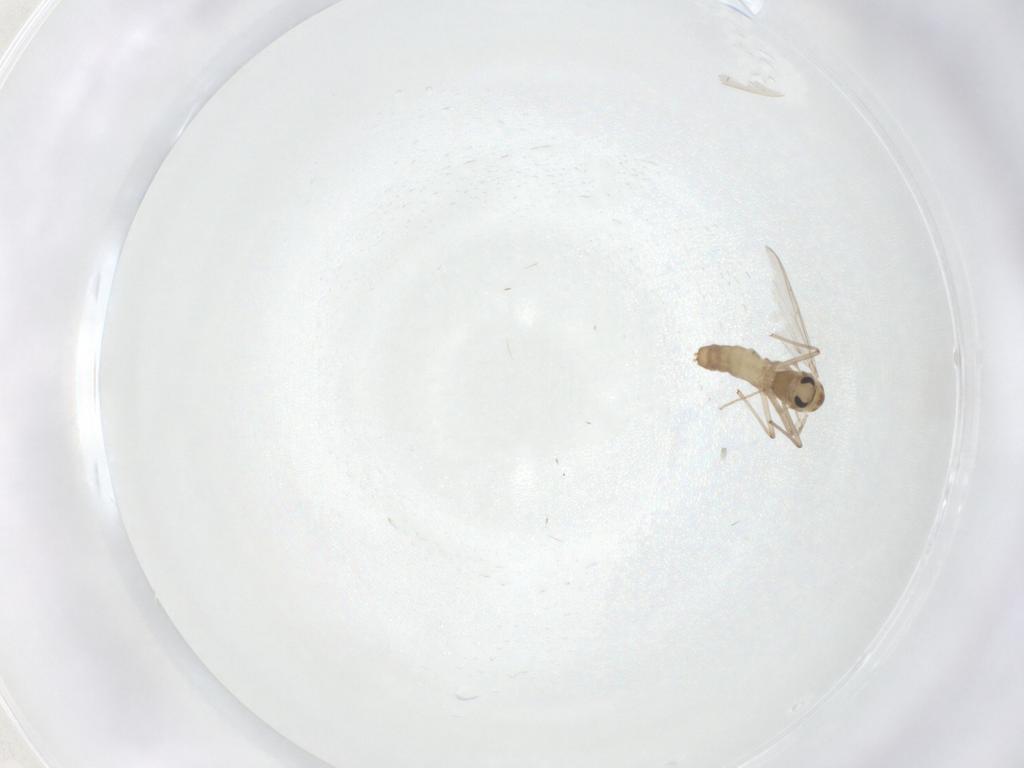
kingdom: Animalia
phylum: Arthropoda
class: Insecta
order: Diptera
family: Chironomidae
